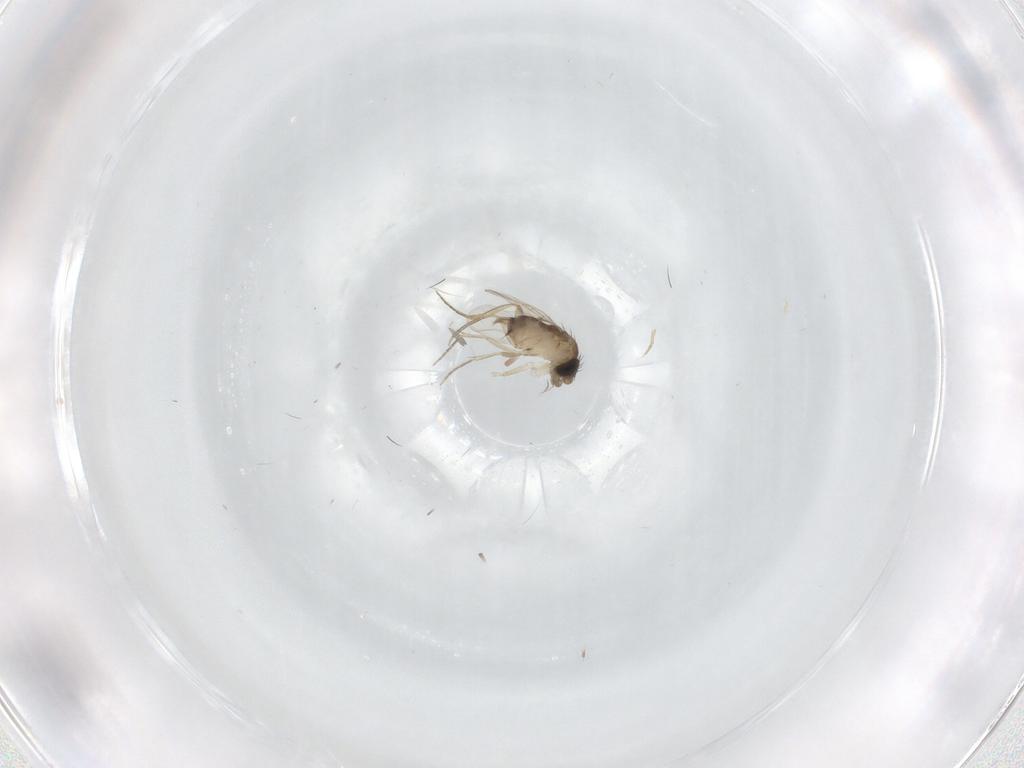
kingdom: Animalia
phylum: Arthropoda
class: Insecta
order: Diptera
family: Phoridae
